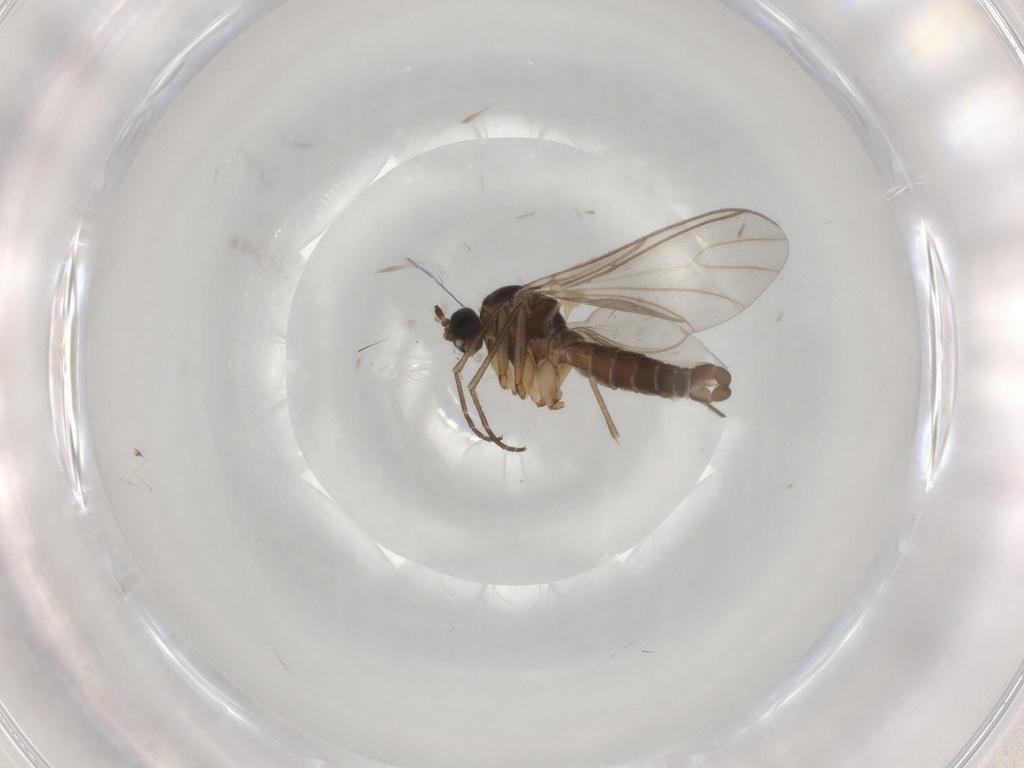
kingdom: Animalia
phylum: Arthropoda
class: Insecta
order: Diptera
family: Sciaridae
